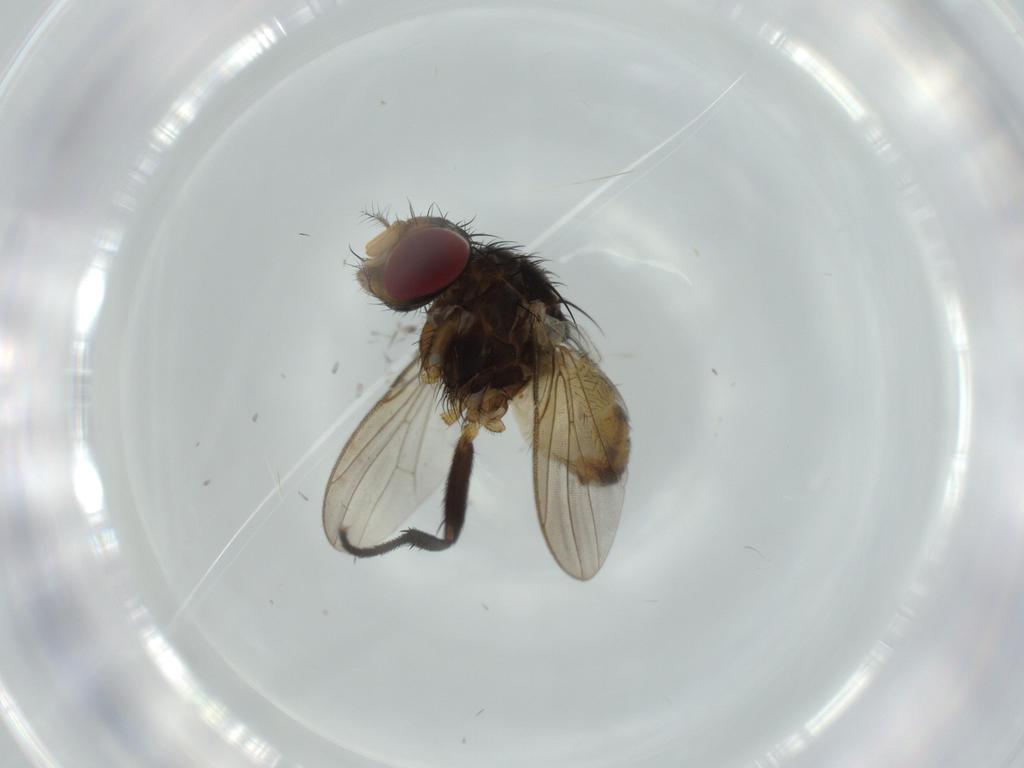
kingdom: Animalia
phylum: Arthropoda
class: Insecta
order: Diptera
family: Anthomyiidae
